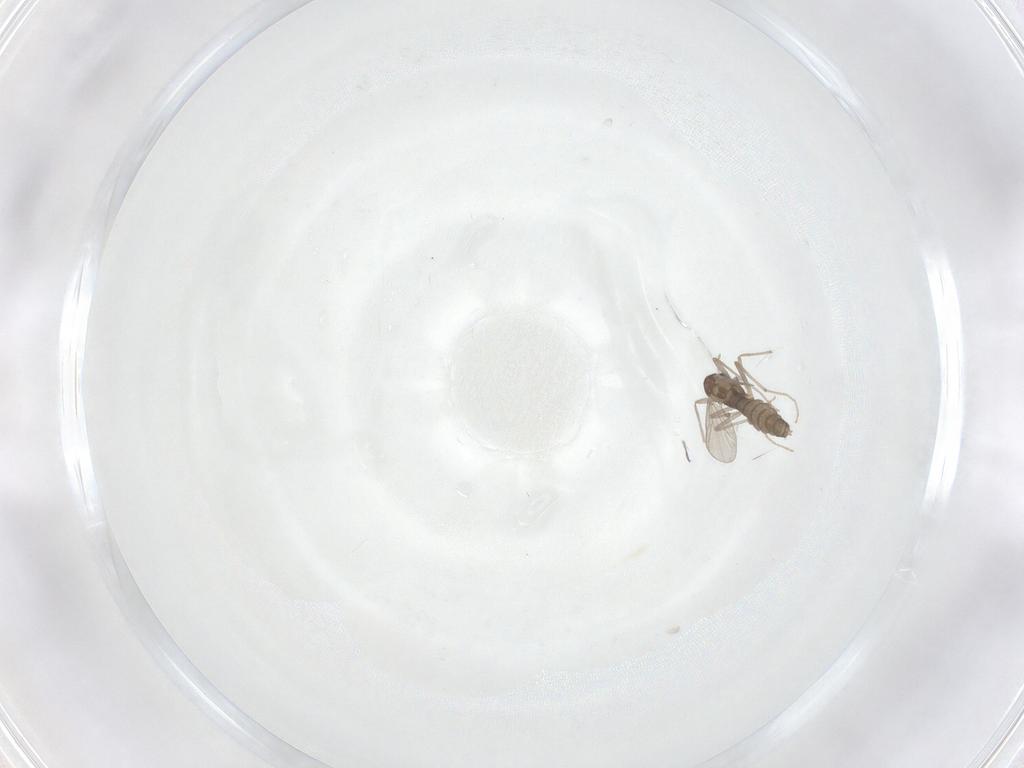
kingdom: Animalia
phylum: Arthropoda
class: Insecta
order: Diptera
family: Chironomidae
